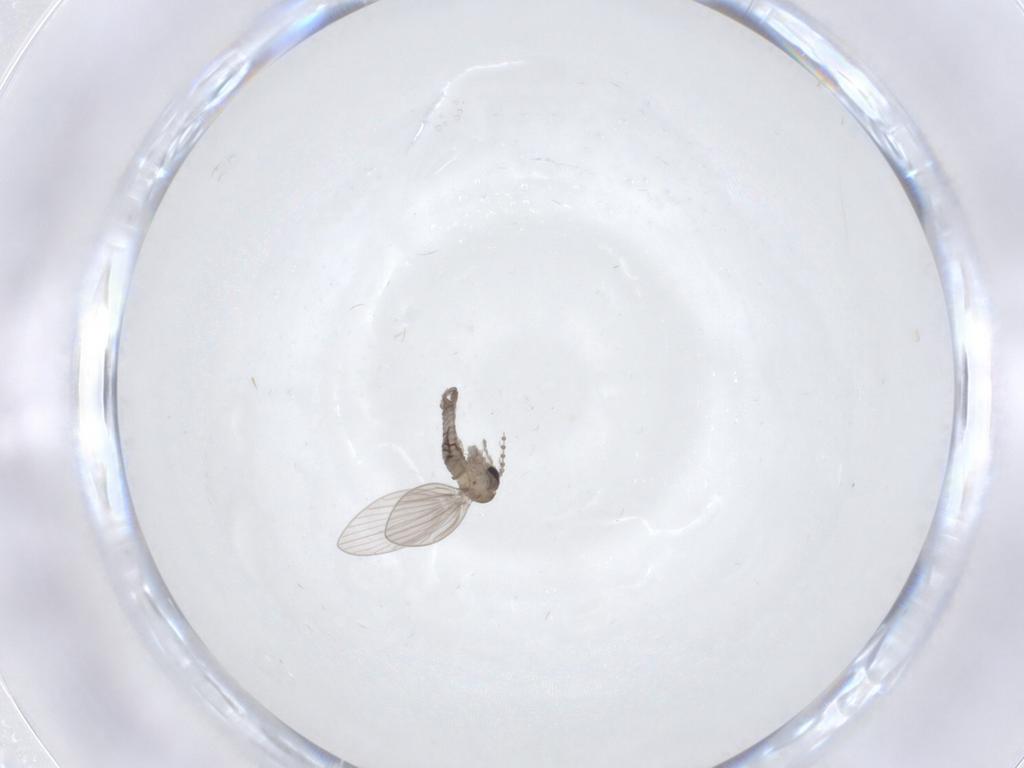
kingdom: Animalia
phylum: Arthropoda
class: Insecta
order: Diptera
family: Psychodidae
